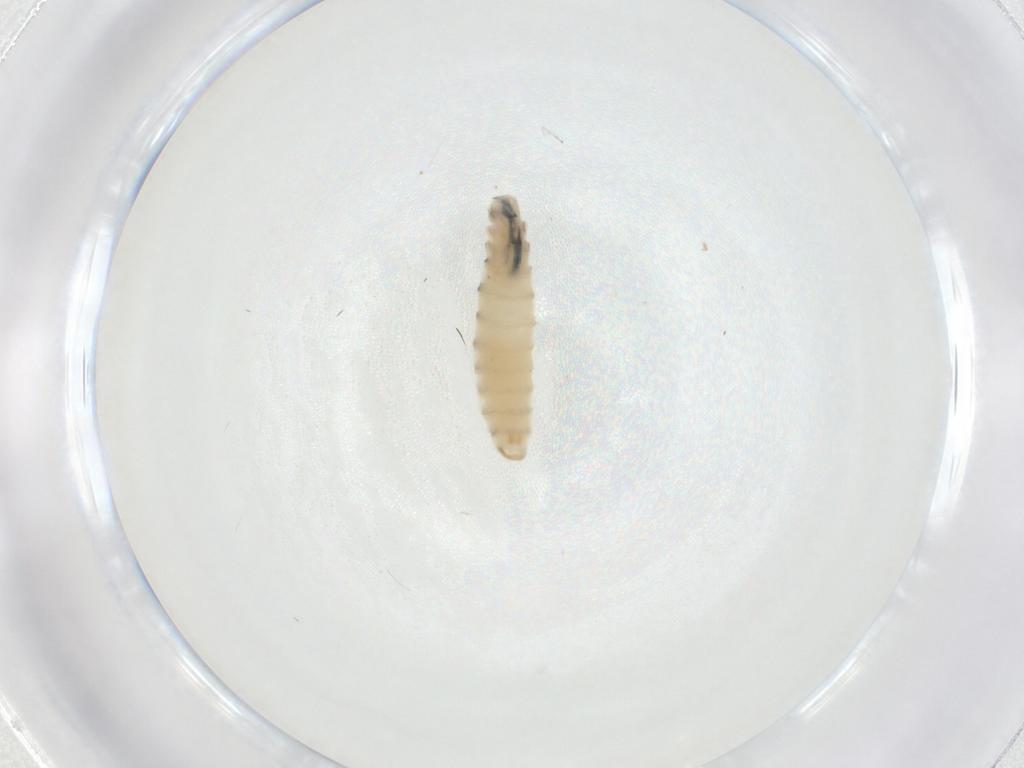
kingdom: Animalia
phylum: Arthropoda
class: Insecta
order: Diptera
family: Sarcophagidae
